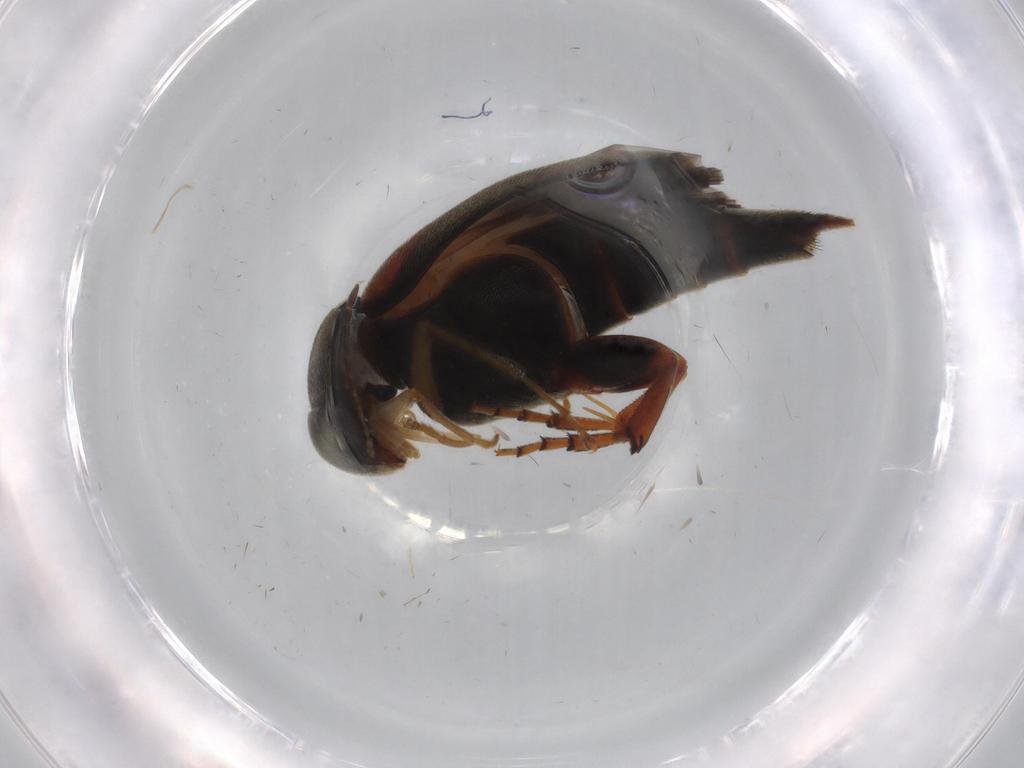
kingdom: Animalia
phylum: Arthropoda
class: Insecta
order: Coleoptera
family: Mordellidae
